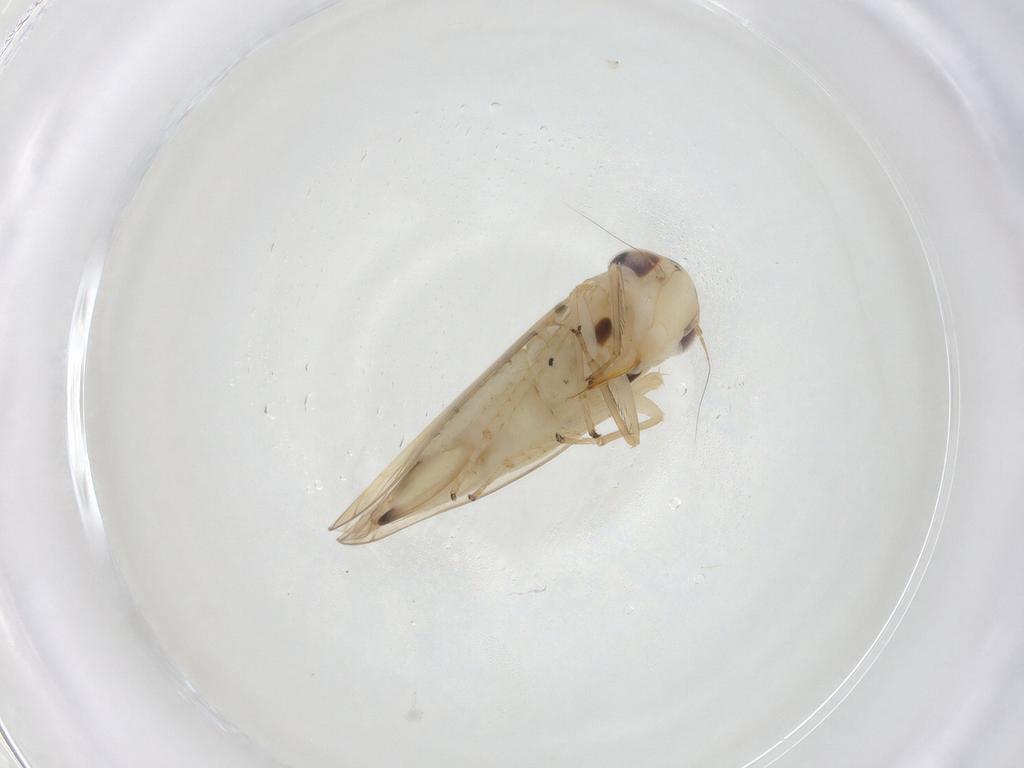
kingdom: Animalia
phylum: Arthropoda
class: Insecta
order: Hemiptera
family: Cicadellidae
